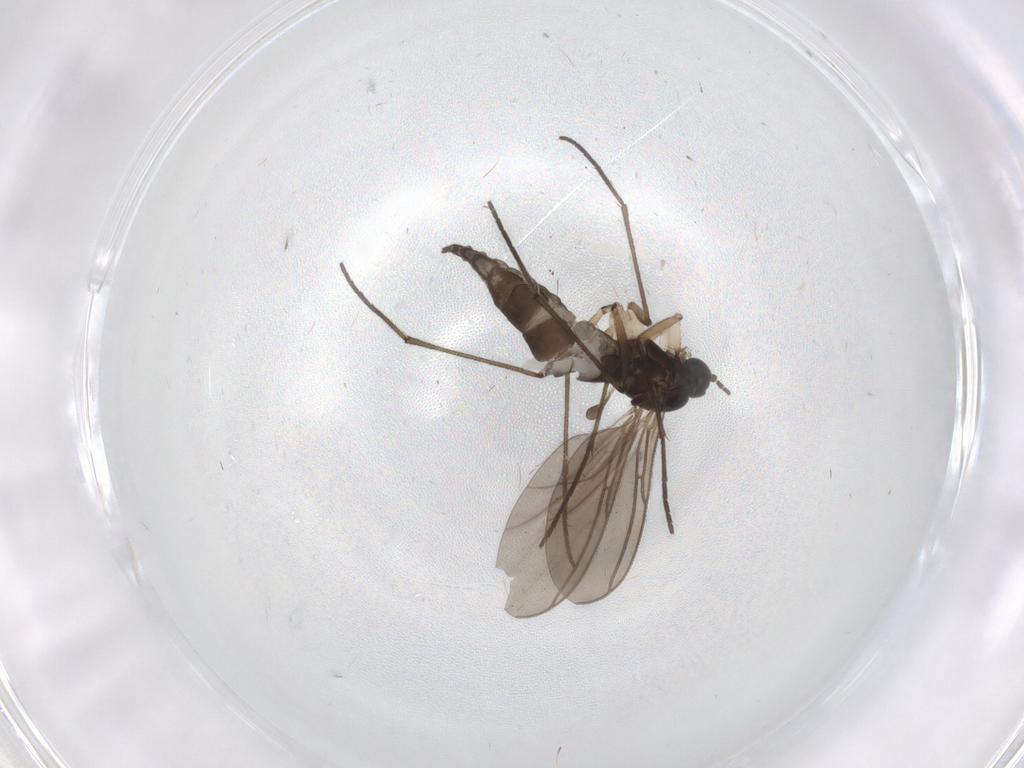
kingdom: Animalia
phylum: Arthropoda
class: Insecta
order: Diptera
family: Sciaridae
